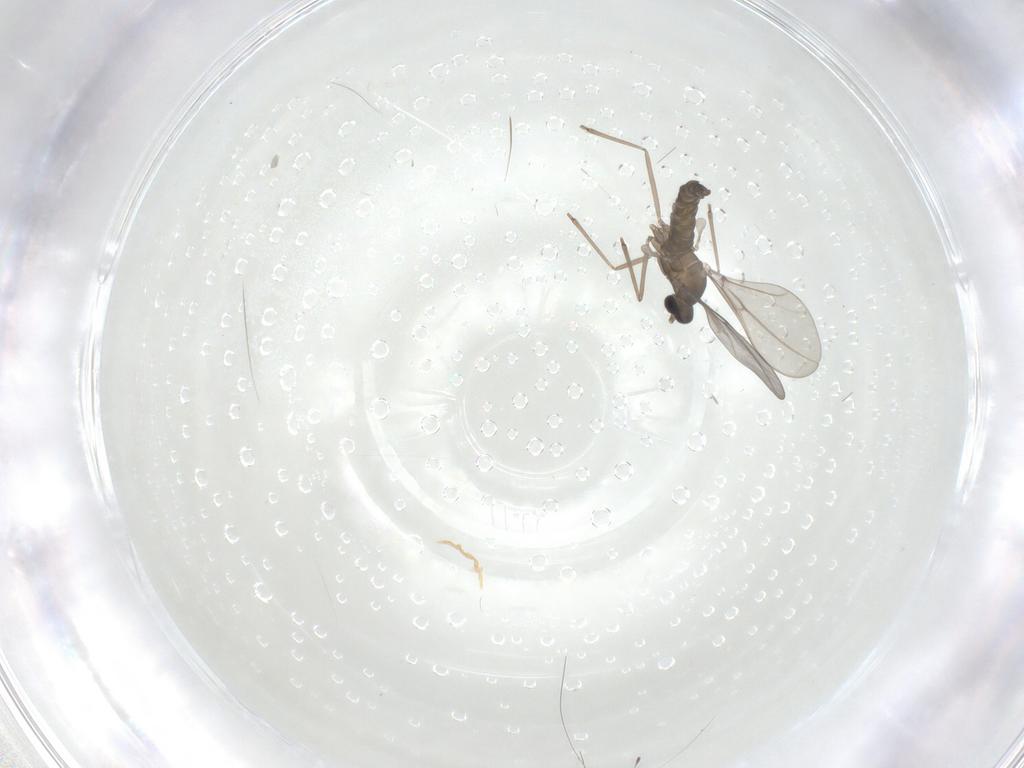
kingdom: Animalia
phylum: Arthropoda
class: Insecta
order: Diptera
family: Cecidomyiidae
